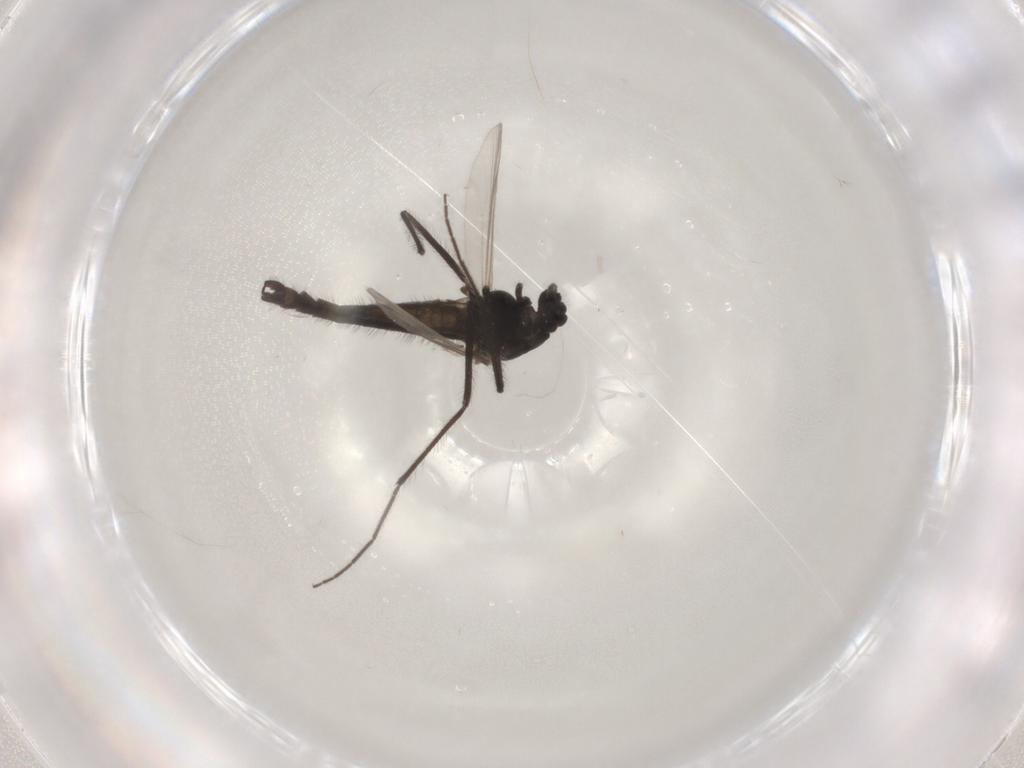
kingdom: Animalia
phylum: Arthropoda
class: Insecta
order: Diptera
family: Chironomidae
